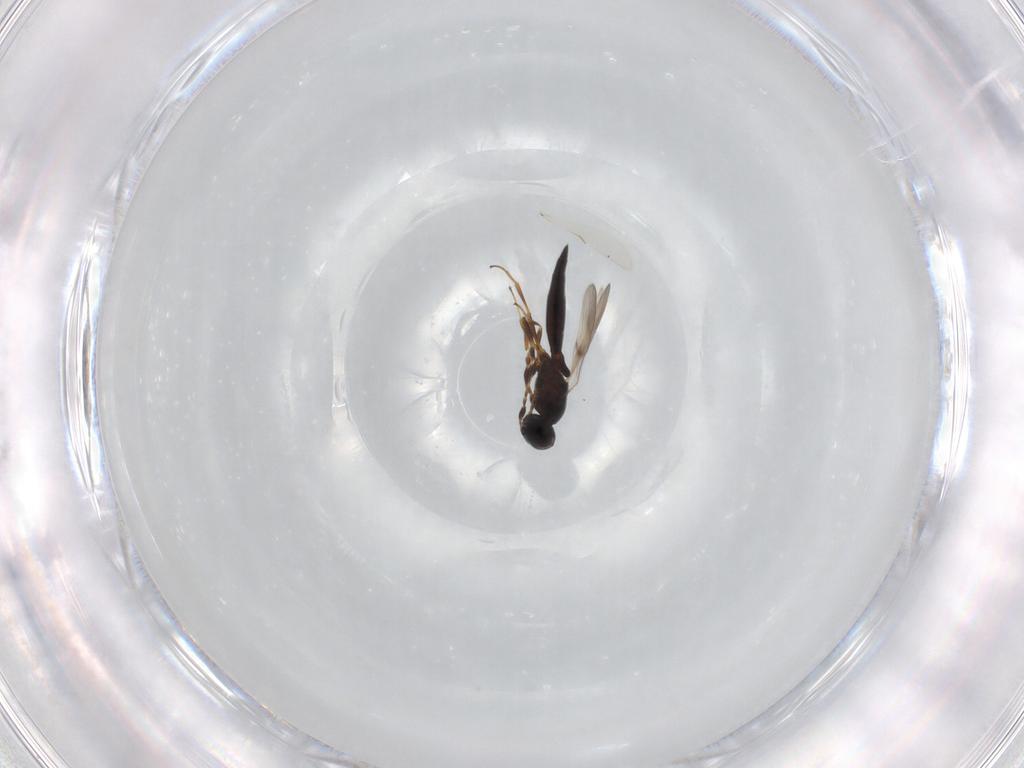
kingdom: Animalia
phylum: Arthropoda
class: Insecta
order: Hymenoptera
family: Scelionidae
